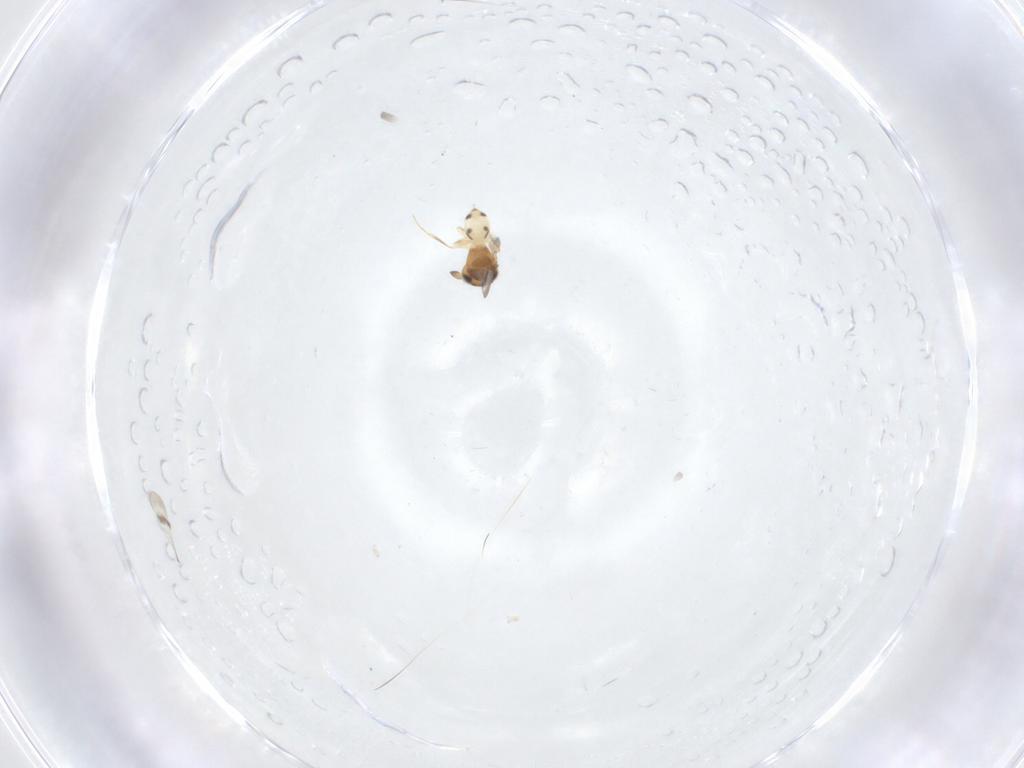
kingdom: Animalia
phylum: Arthropoda
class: Insecta
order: Hymenoptera
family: Scelionidae
